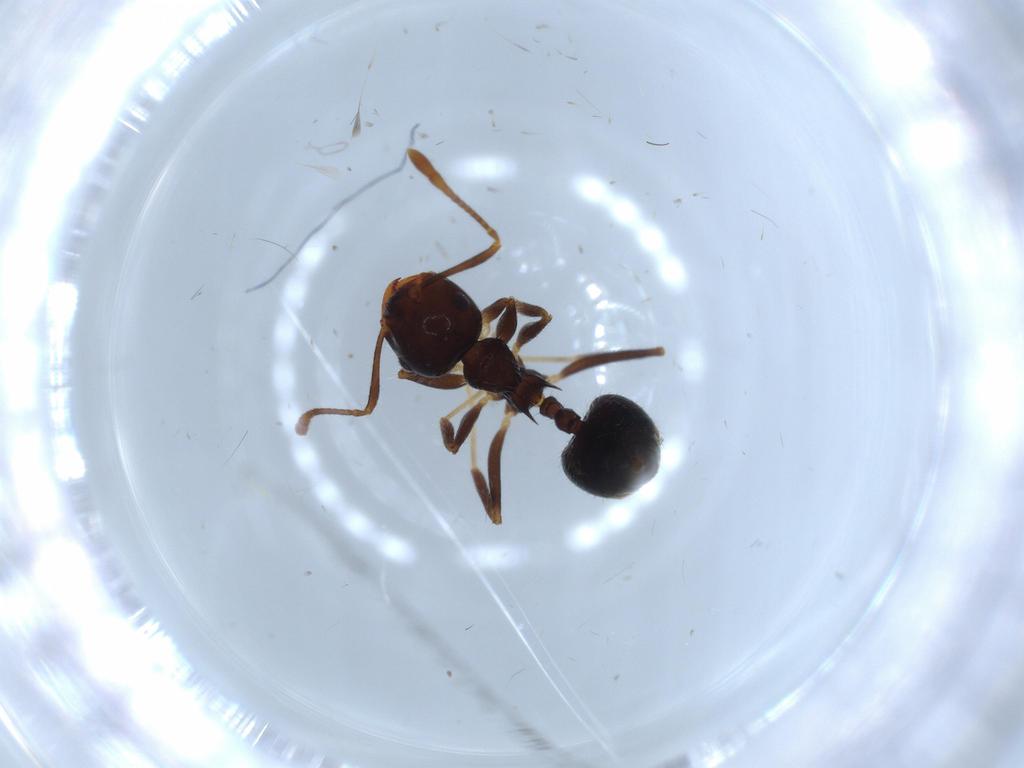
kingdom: Animalia
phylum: Arthropoda
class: Insecta
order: Hymenoptera
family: Formicidae
